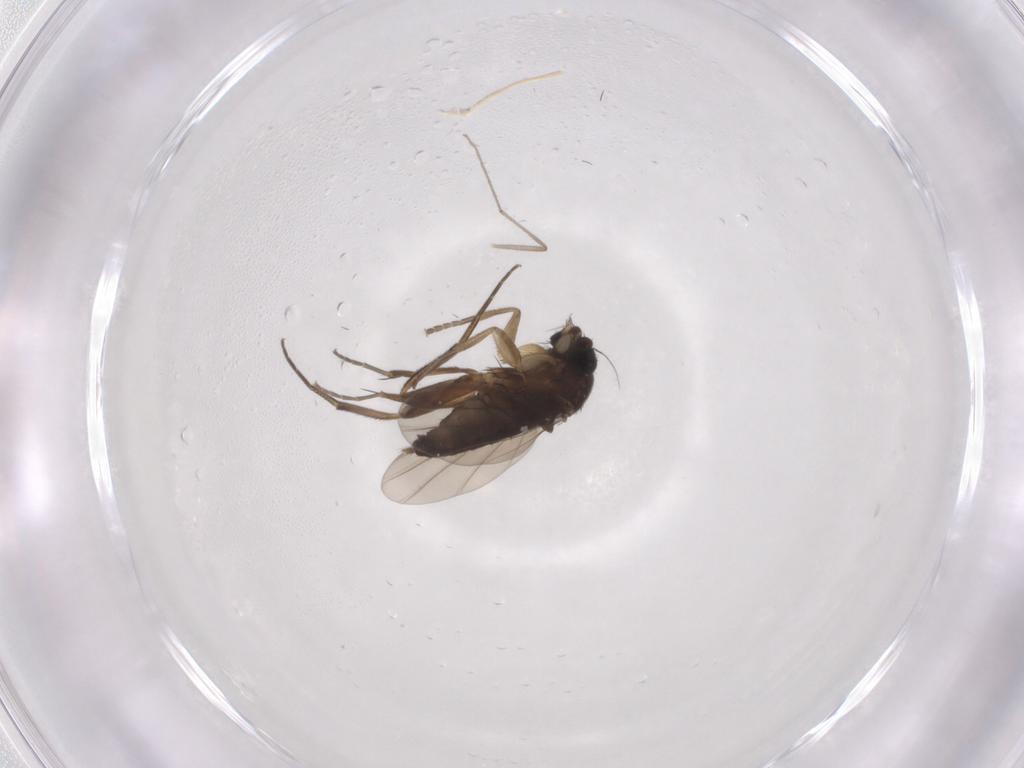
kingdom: Animalia
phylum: Arthropoda
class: Insecta
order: Diptera
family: Phoridae
